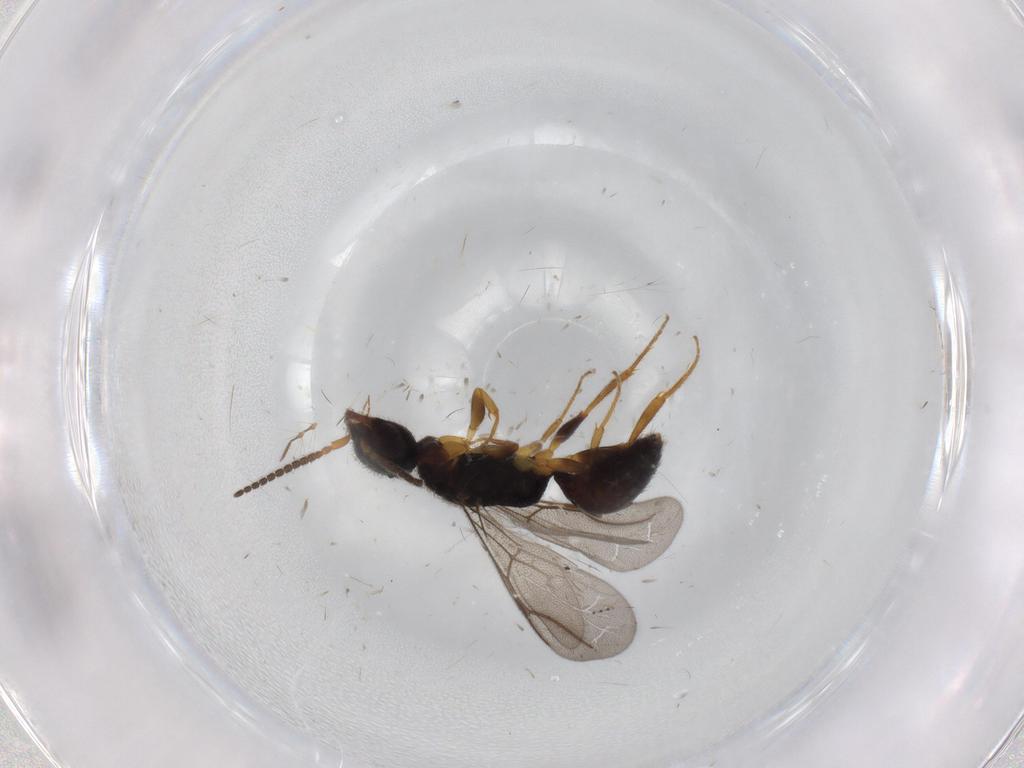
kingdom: Animalia
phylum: Arthropoda
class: Insecta
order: Hymenoptera
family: Bethylidae
